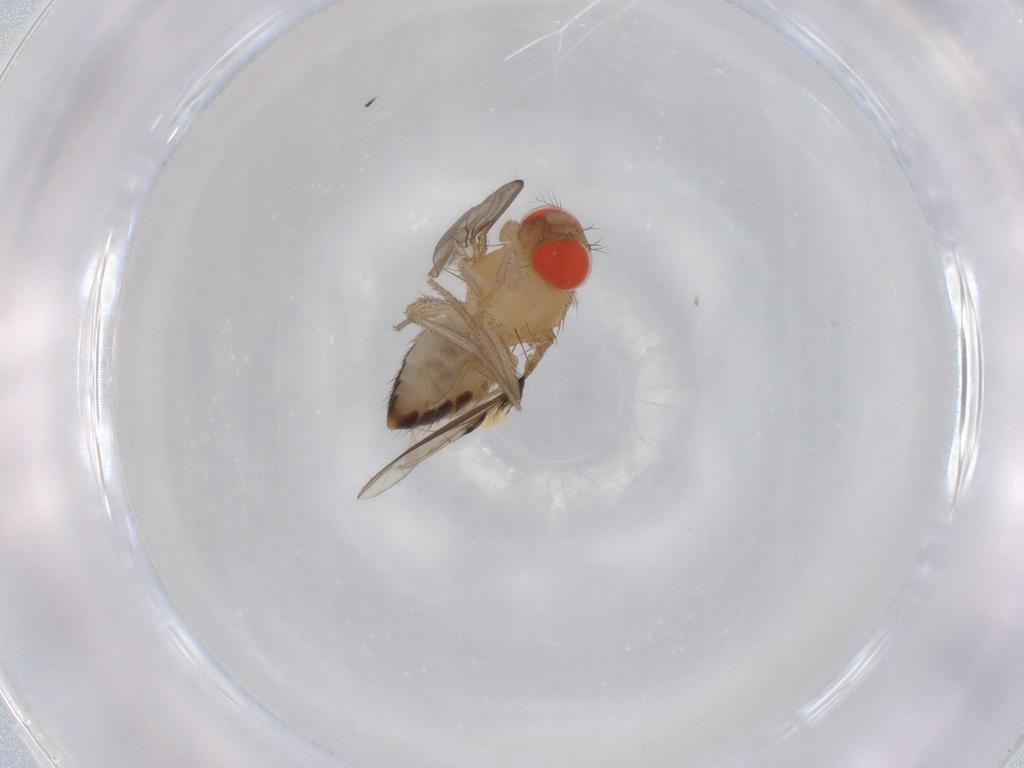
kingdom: Animalia
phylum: Arthropoda
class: Insecta
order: Diptera
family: Drosophilidae
